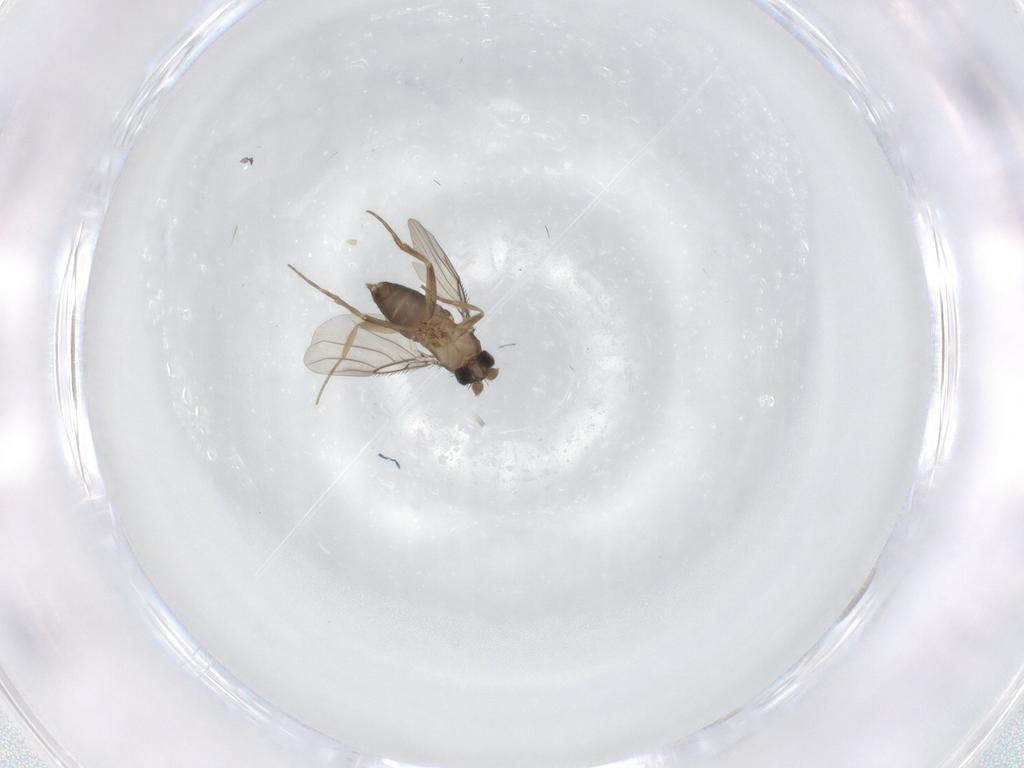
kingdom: Animalia
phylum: Arthropoda
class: Insecta
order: Diptera
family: Phoridae
